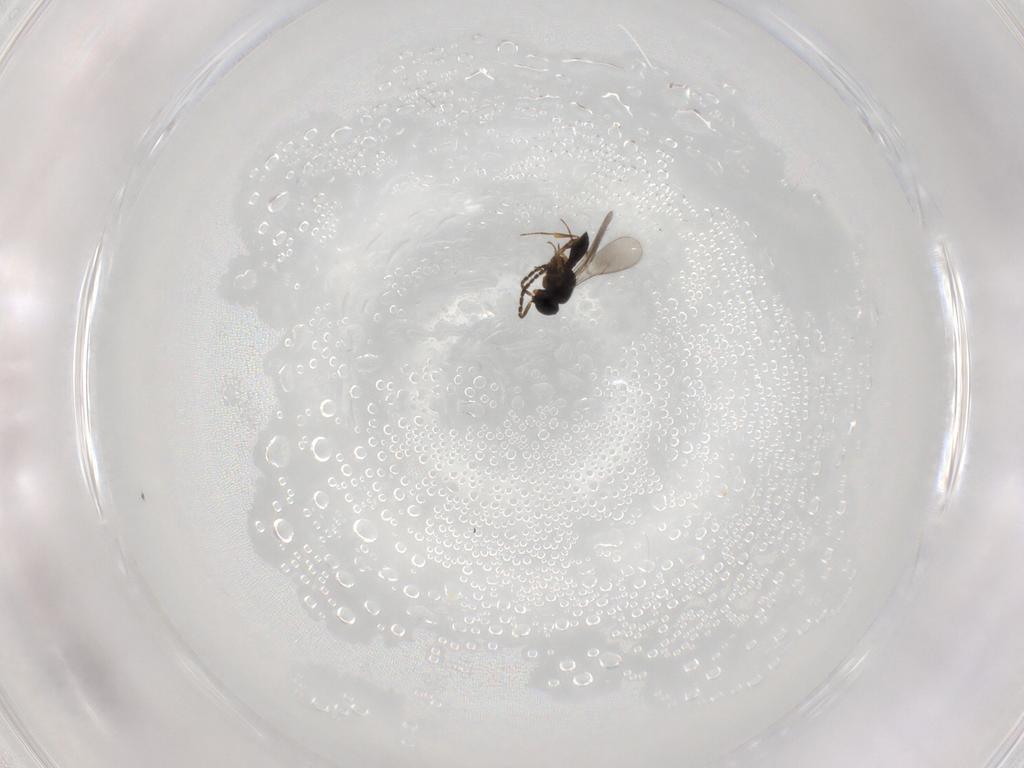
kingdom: Animalia
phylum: Arthropoda
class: Insecta
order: Hymenoptera
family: Scelionidae
